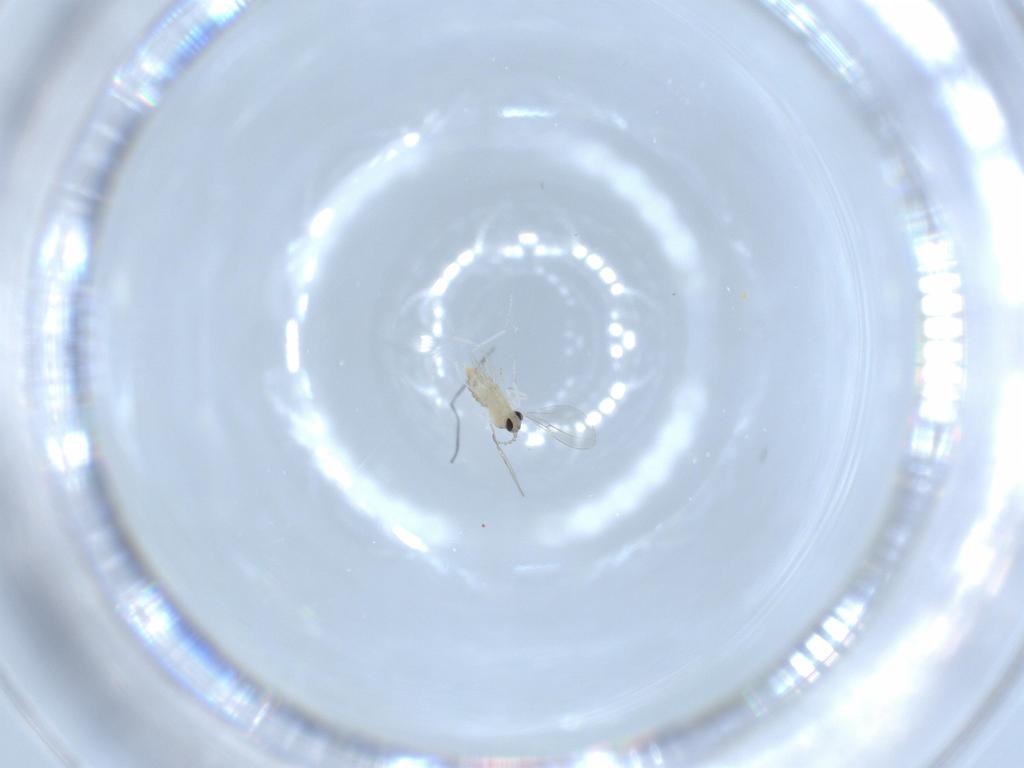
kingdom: Animalia
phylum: Arthropoda
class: Insecta
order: Diptera
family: Cecidomyiidae
